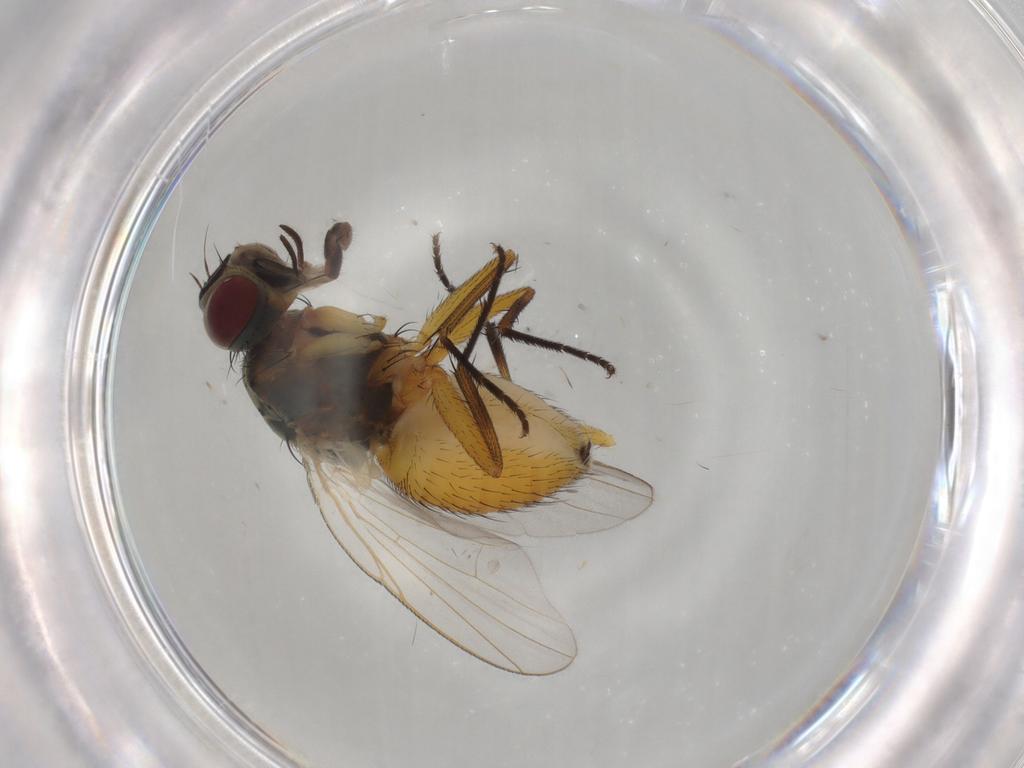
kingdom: Animalia
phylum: Arthropoda
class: Insecta
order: Diptera
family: Muscidae
